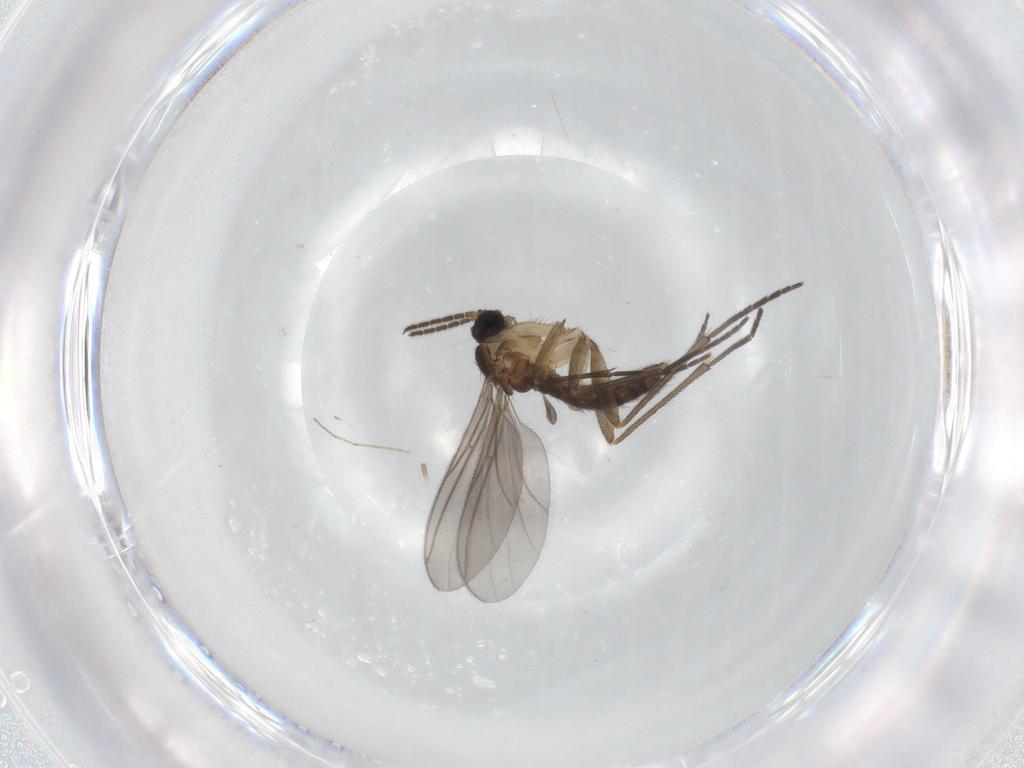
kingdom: Animalia
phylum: Arthropoda
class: Insecta
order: Diptera
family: Sciaridae
